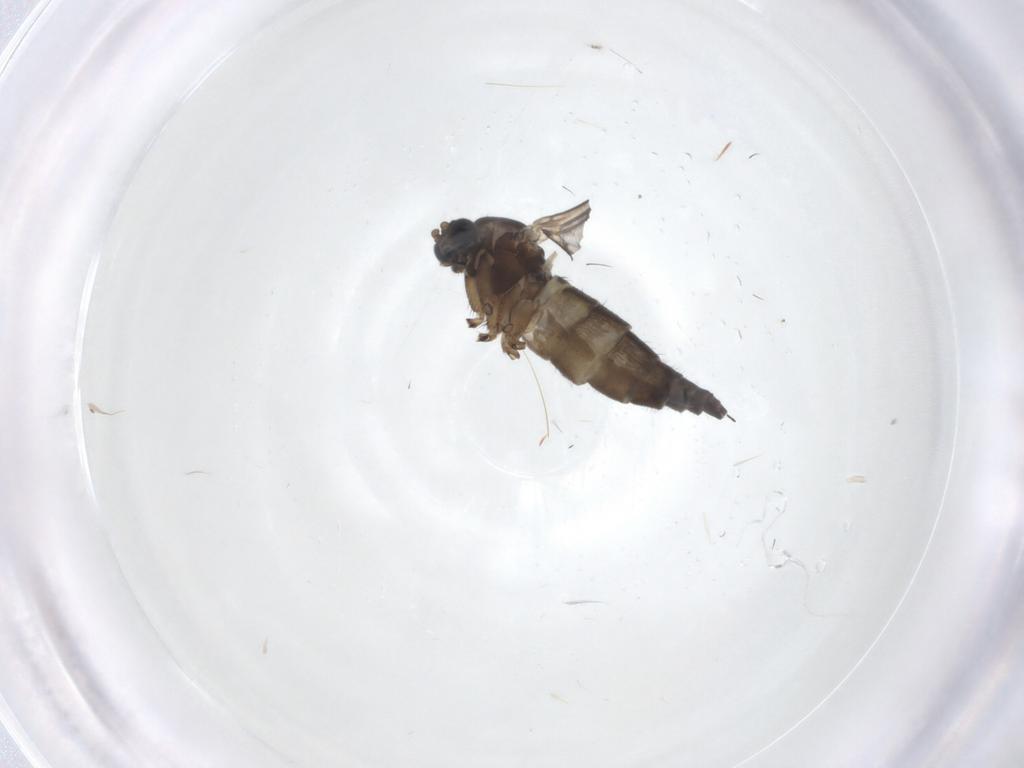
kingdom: Animalia
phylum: Arthropoda
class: Insecta
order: Diptera
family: Sciaridae
